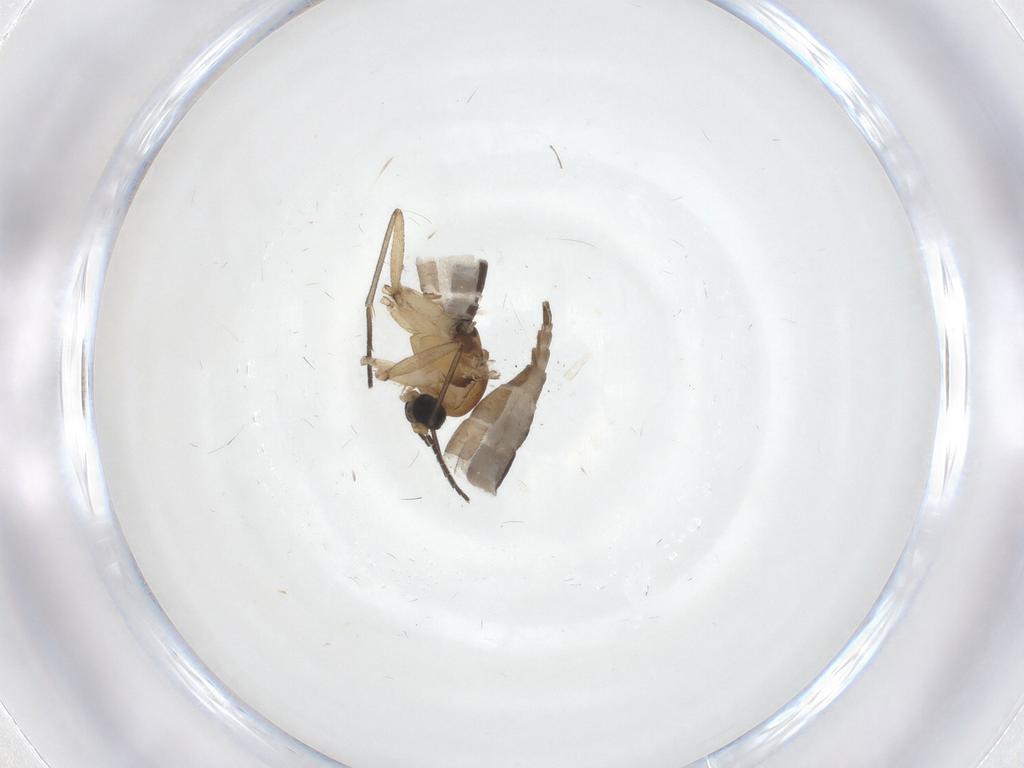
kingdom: Animalia
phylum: Arthropoda
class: Insecta
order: Diptera
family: Sciaridae
